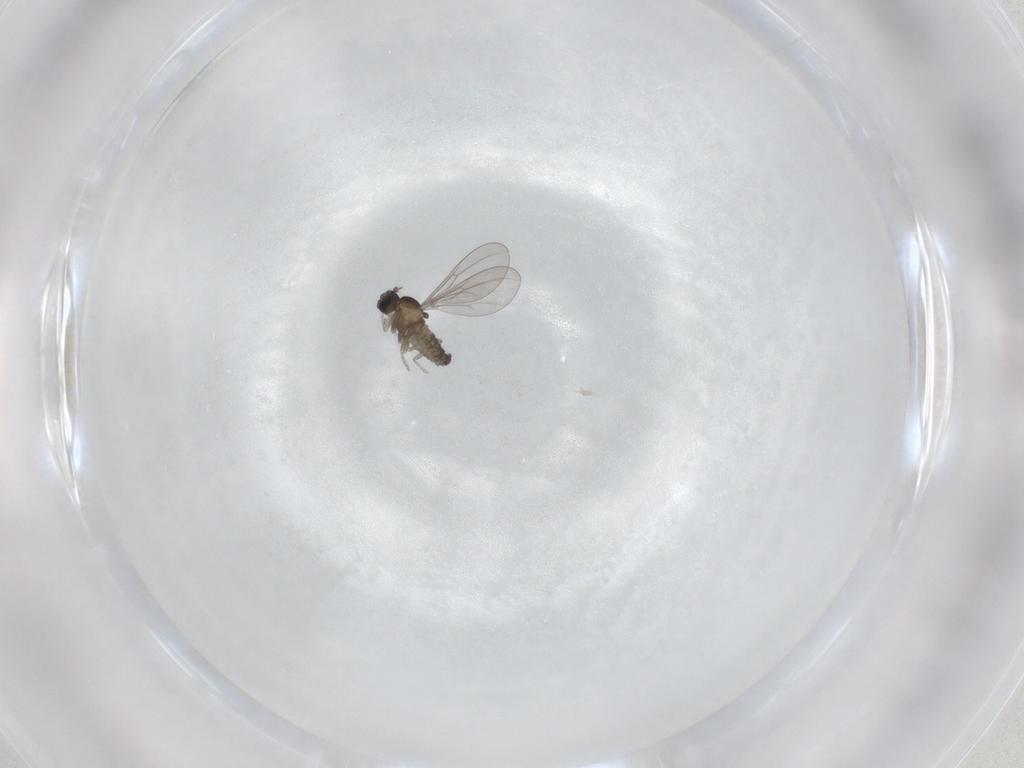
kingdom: Animalia
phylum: Arthropoda
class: Insecta
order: Diptera
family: Cecidomyiidae
